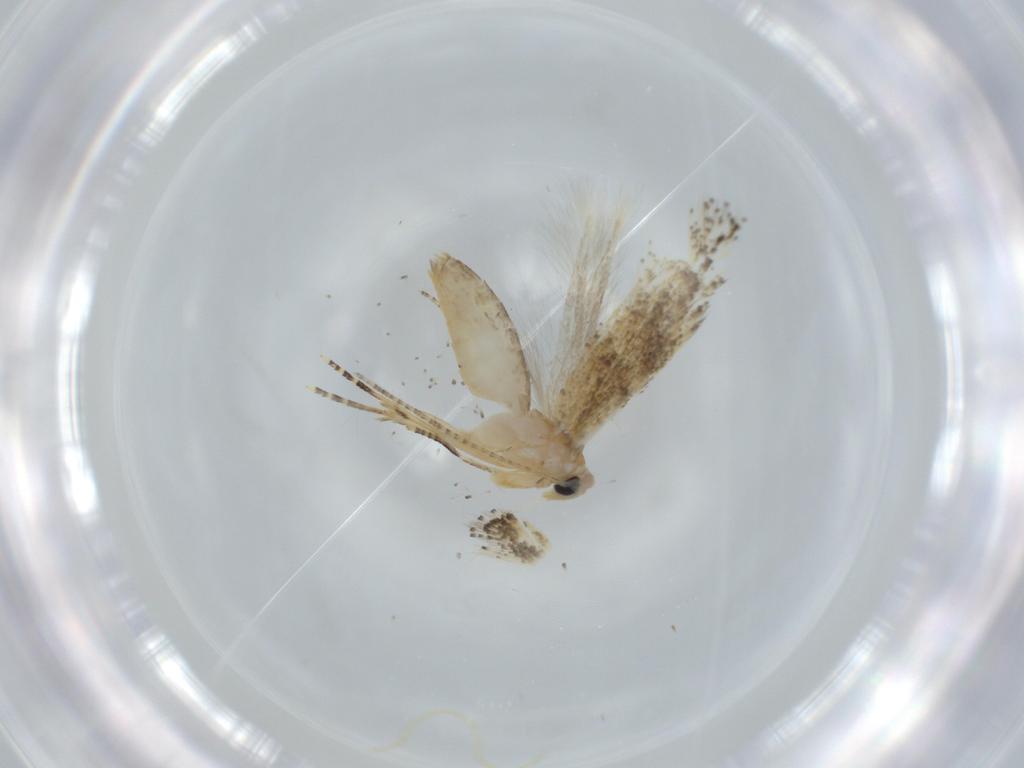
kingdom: Animalia
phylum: Arthropoda
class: Insecta
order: Lepidoptera
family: Bucculatricidae
